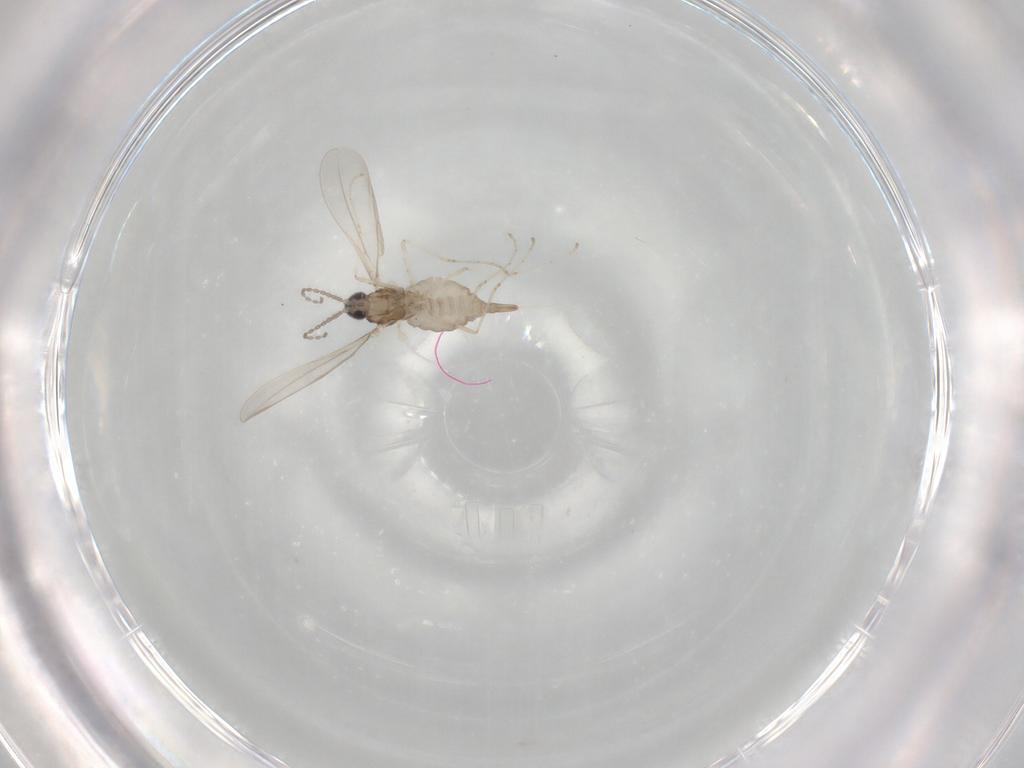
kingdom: Animalia
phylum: Arthropoda
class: Insecta
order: Diptera
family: Cecidomyiidae
